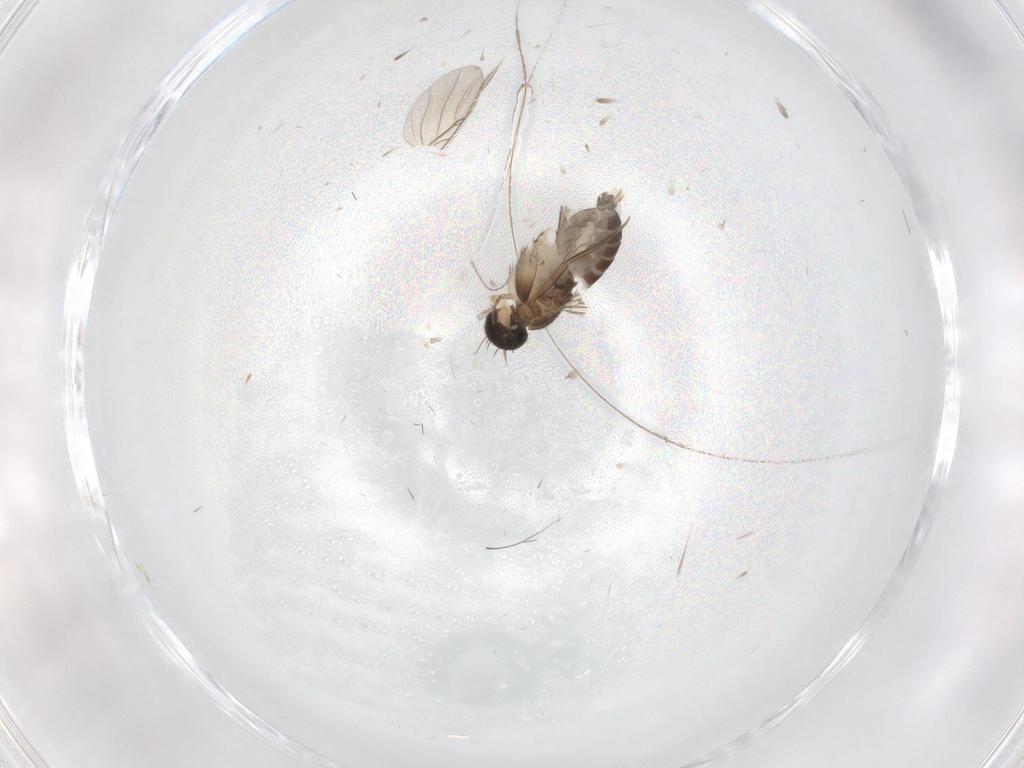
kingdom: Animalia
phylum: Arthropoda
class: Insecta
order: Diptera
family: Phoridae
